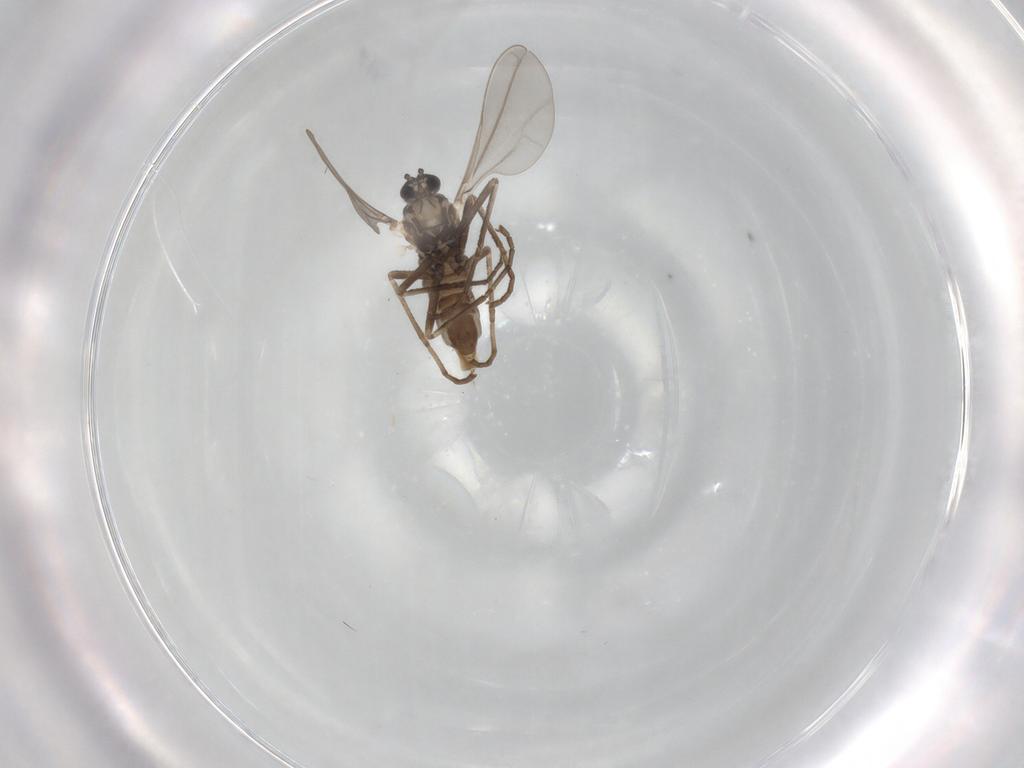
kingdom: Animalia
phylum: Arthropoda
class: Insecta
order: Diptera
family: Cecidomyiidae
